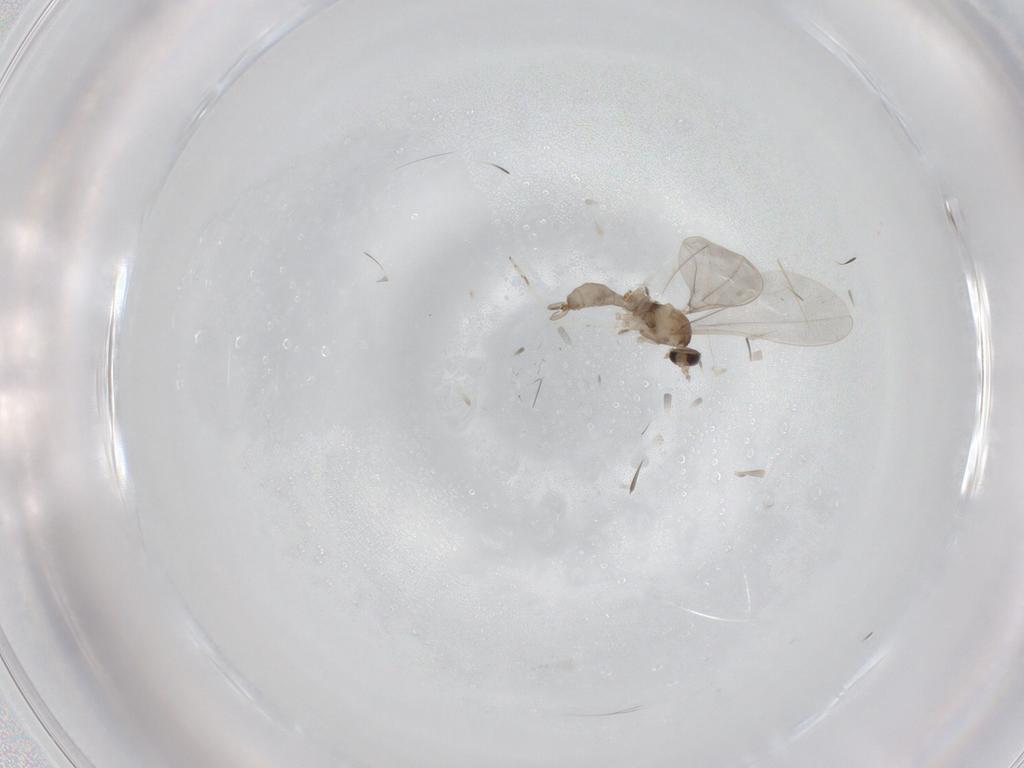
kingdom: Animalia
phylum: Arthropoda
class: Insecta
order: Diptera
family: Cecidomyiidae
